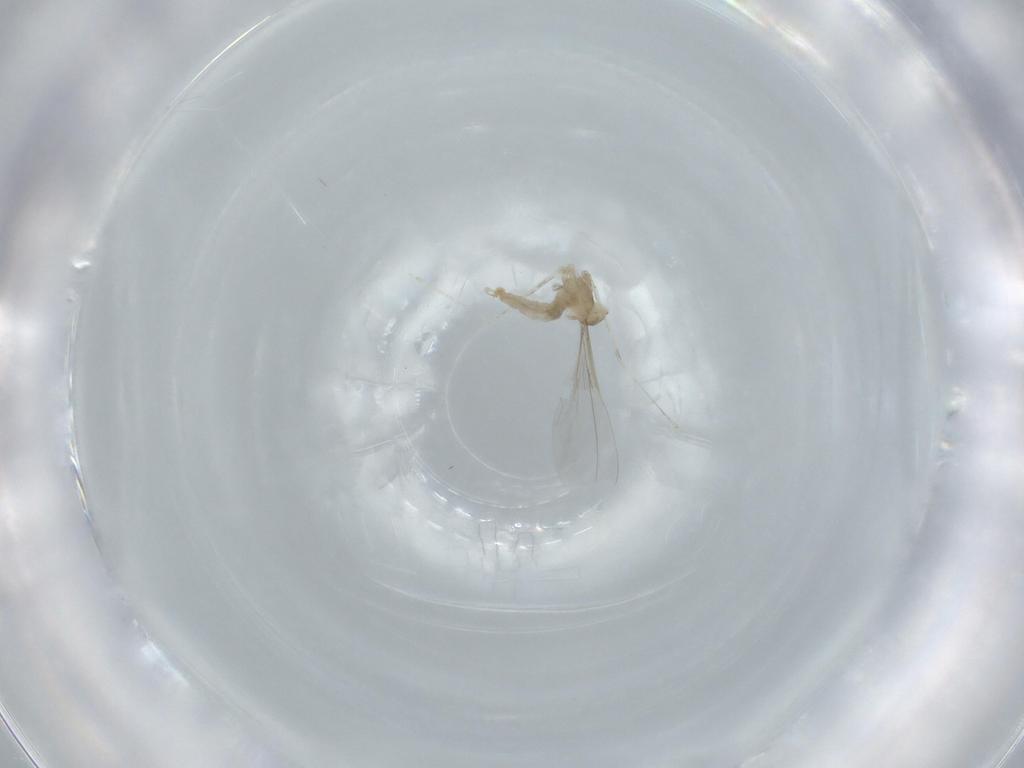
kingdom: Animalia
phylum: Arthropoda
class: Insecta
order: Diptera
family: Cecidomyiidae
